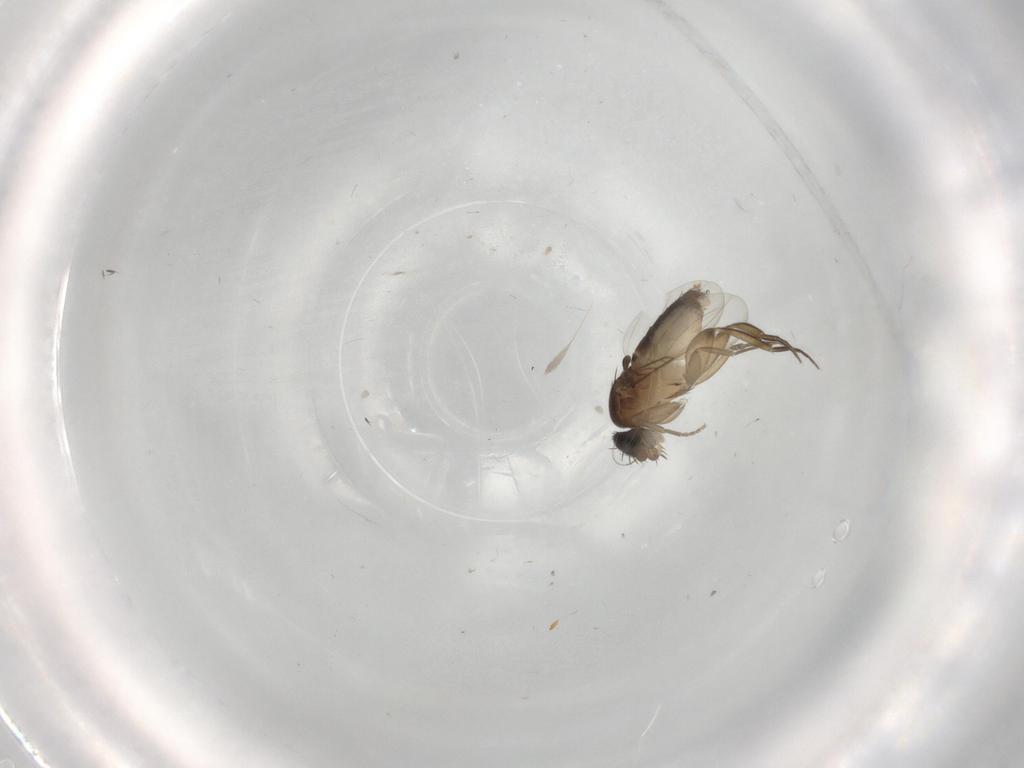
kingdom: Animalia
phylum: Arthropoda
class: Insecta
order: Diptera
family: Phoridae
